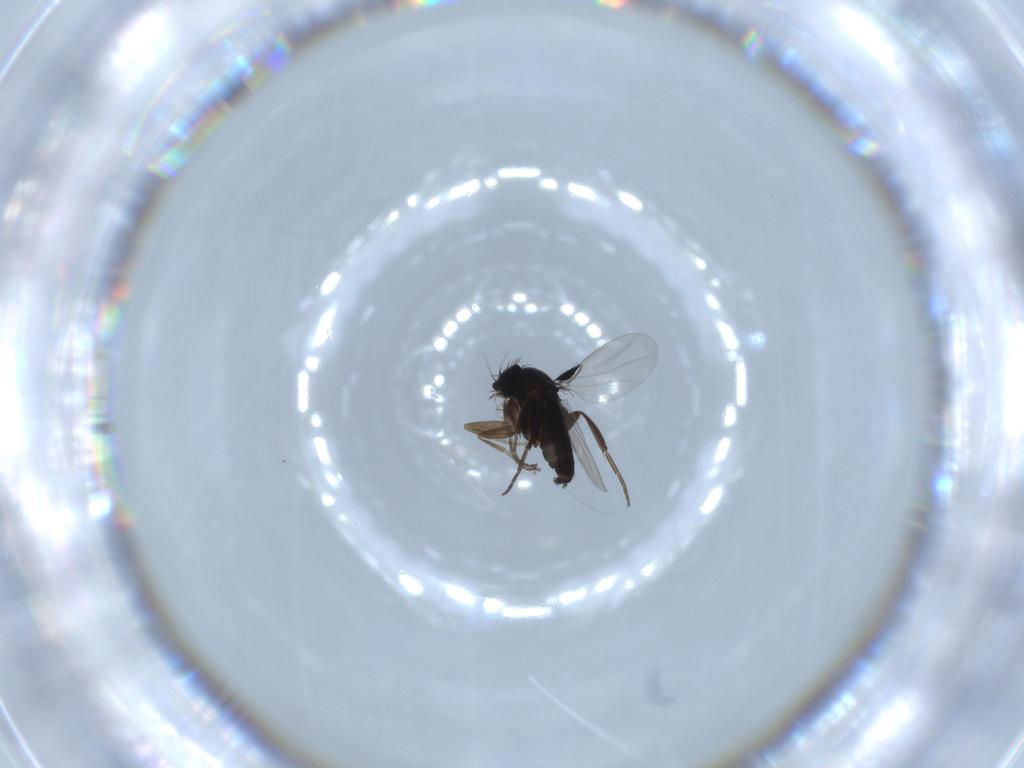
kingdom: Animalia
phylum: Arthropoda
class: Insecta
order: Diptera
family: Phoridae
